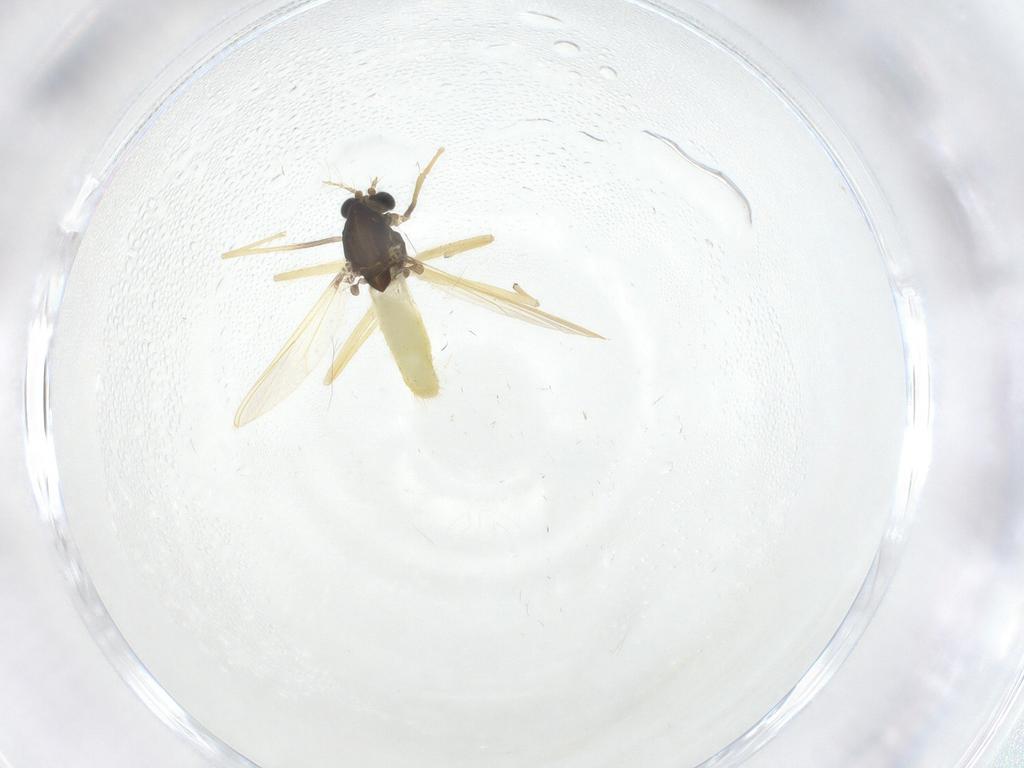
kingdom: Animalia
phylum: Arthropoda
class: Insecta
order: Diptera
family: Chironomidae
